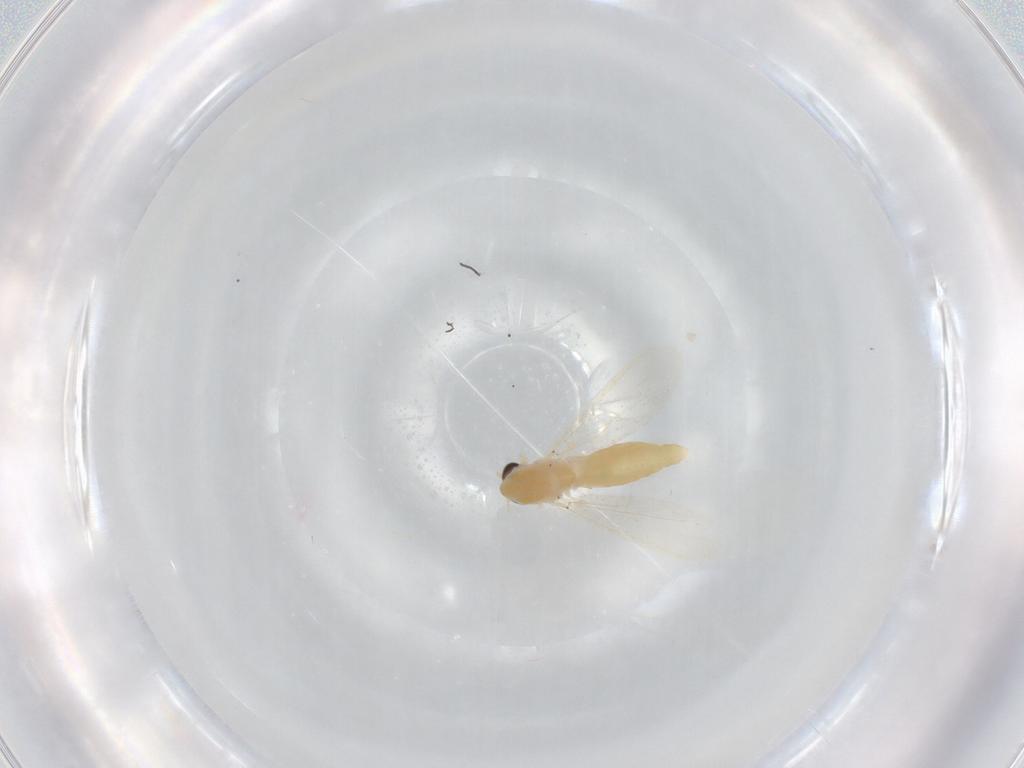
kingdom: Animalia
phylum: Arthropoda
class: Insecta
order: Diptera
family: Chironomidae
